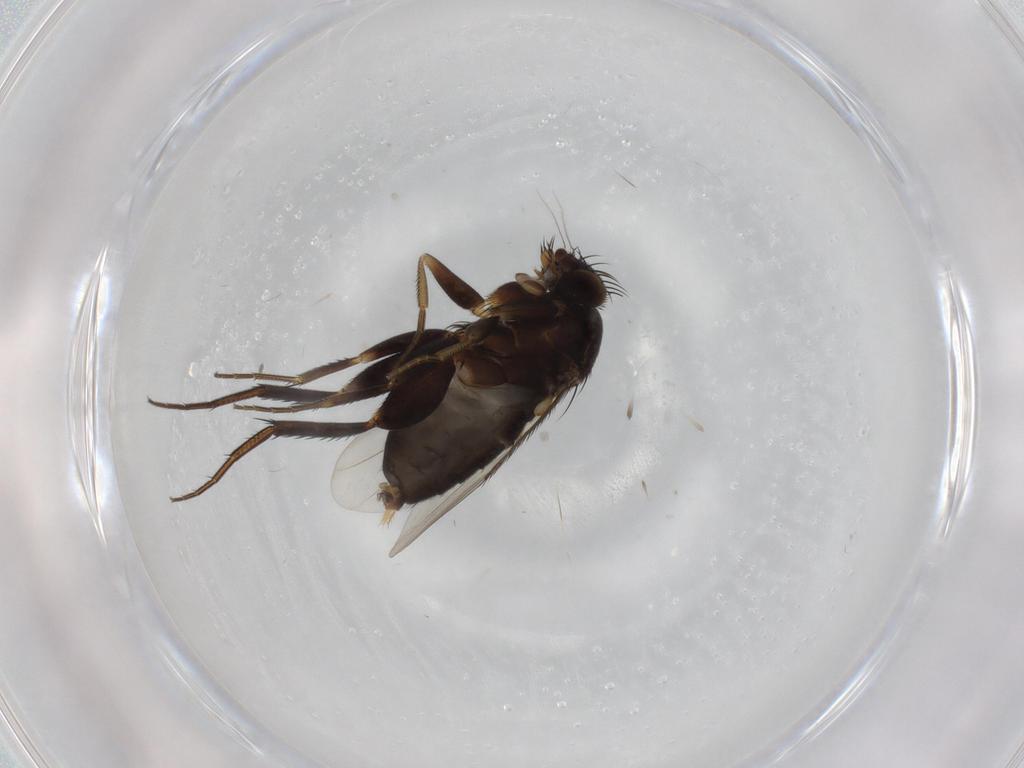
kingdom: Animalia
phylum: Arthropoda
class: Insecta
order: Diptera
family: Phoridae
